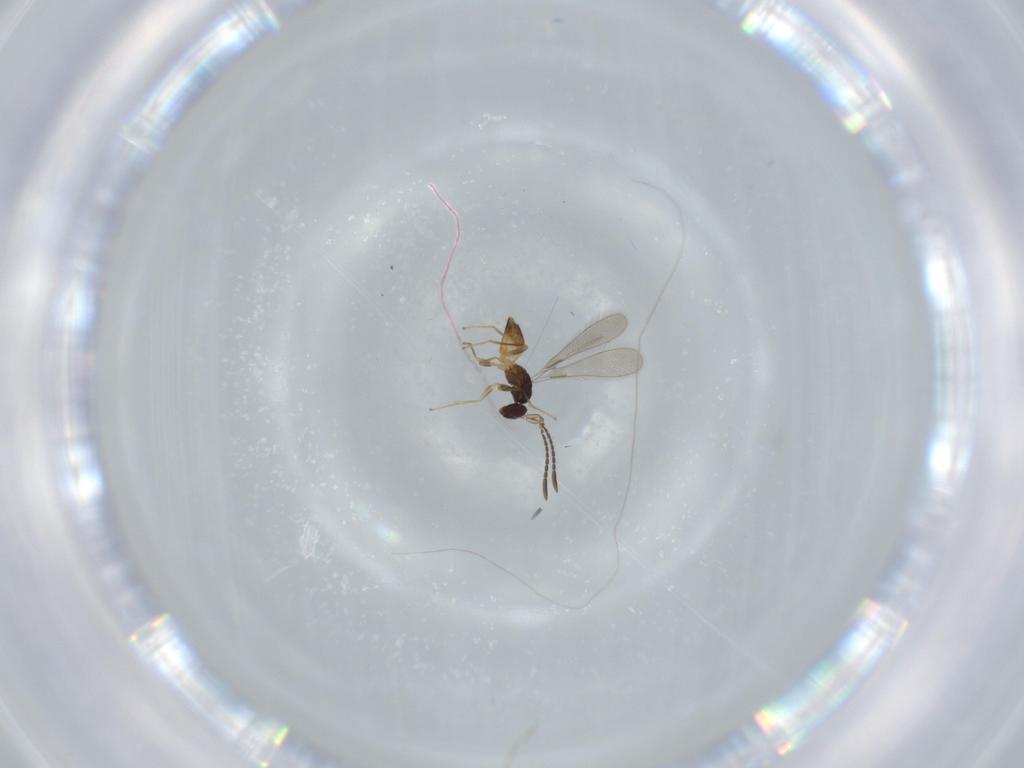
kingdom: Animalia
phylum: Arthropoda
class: Insecta
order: Hymenoptera
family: Mymaridae
